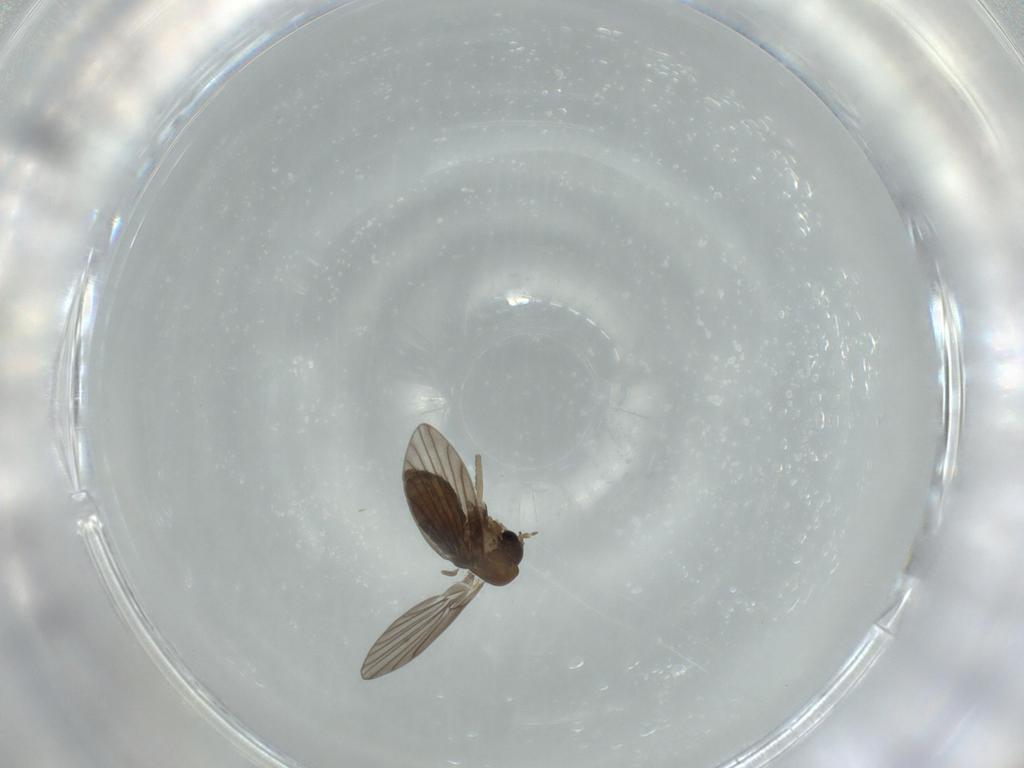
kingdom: Animalia
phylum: Arthropoda
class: Insecta
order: Diptera
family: Psychodidae
